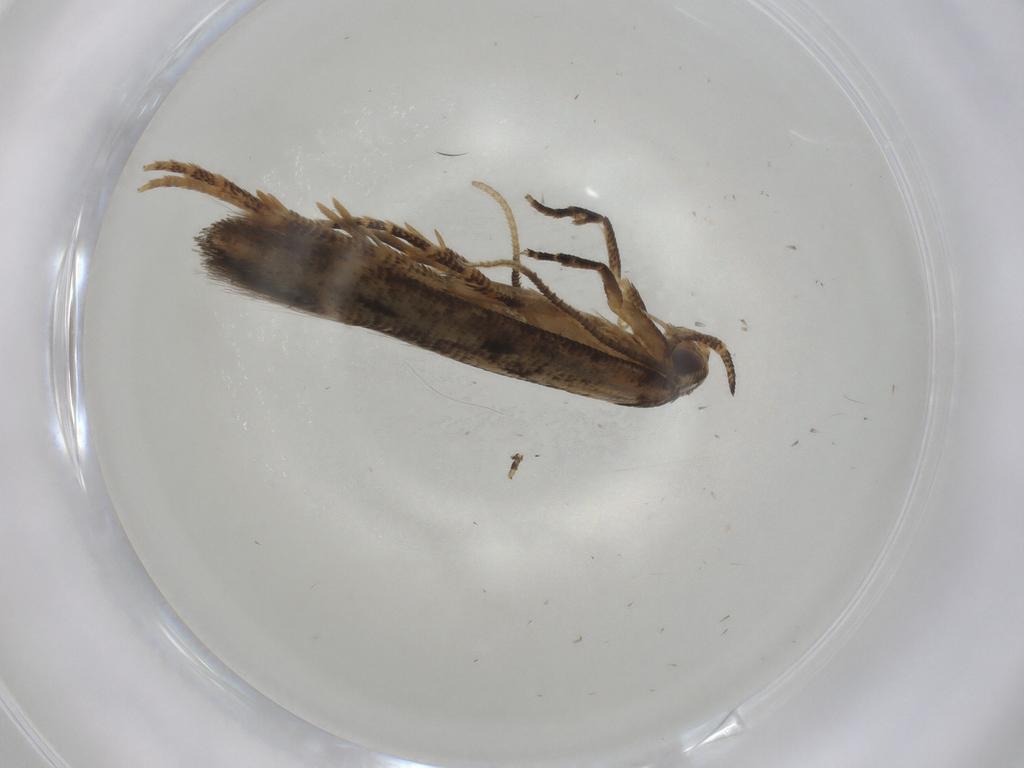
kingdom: Animalia
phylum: Arthropoda
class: Insecta
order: Lepidoptera
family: Gelechiidae
